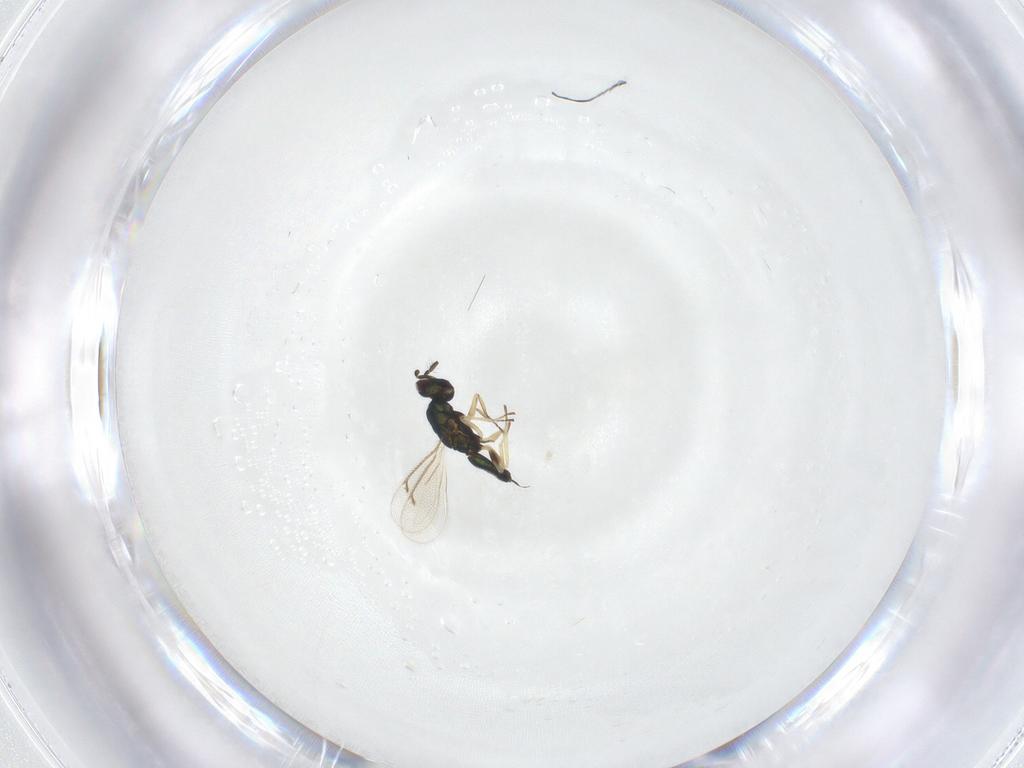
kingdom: Animalia
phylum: Arthropoda
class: Insecta
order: Hymenoptera
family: Eulophidae
